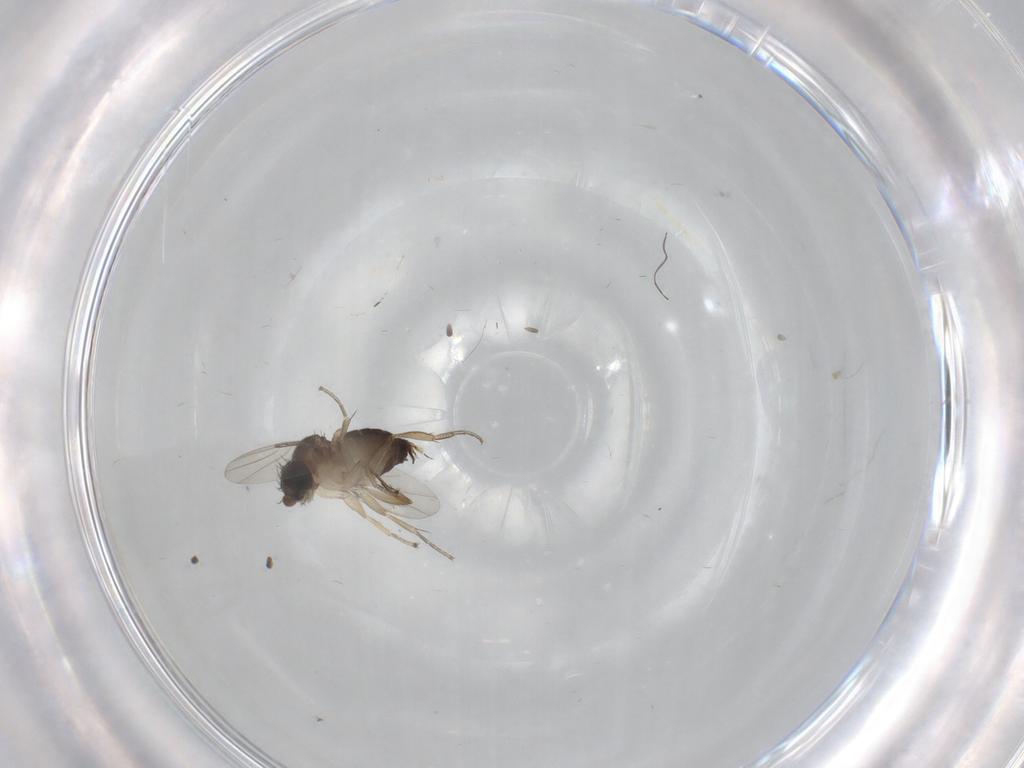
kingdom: Animalia
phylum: Arthropoda
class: Insecta
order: Diptera
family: Phoridae
